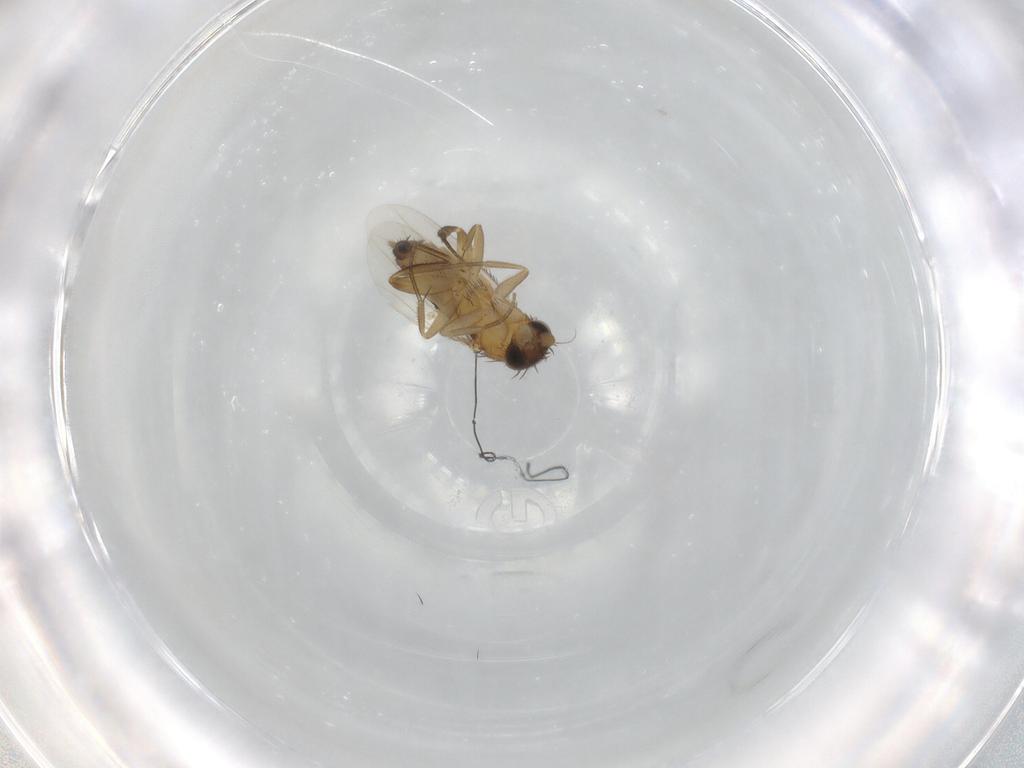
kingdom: Animalia
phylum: Arthropoda
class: Insecta
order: Diptera
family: Phoridae
